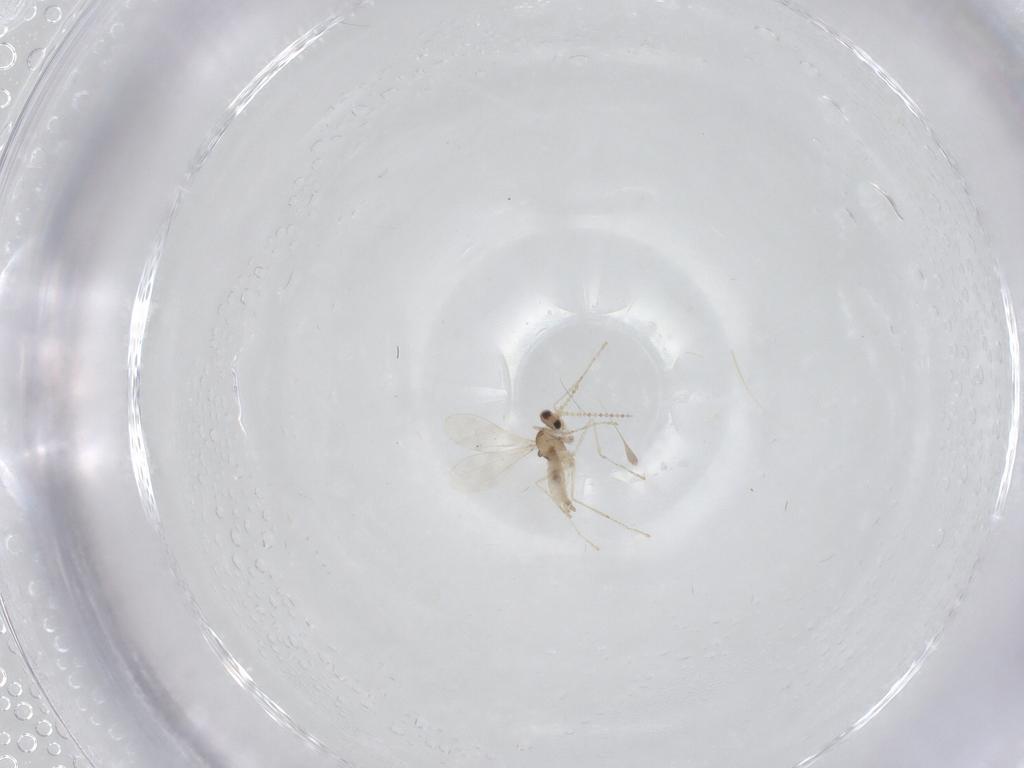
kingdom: Animalia
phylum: Arthropoda
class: Insecta
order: Diptera
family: Cecidomyiidae
